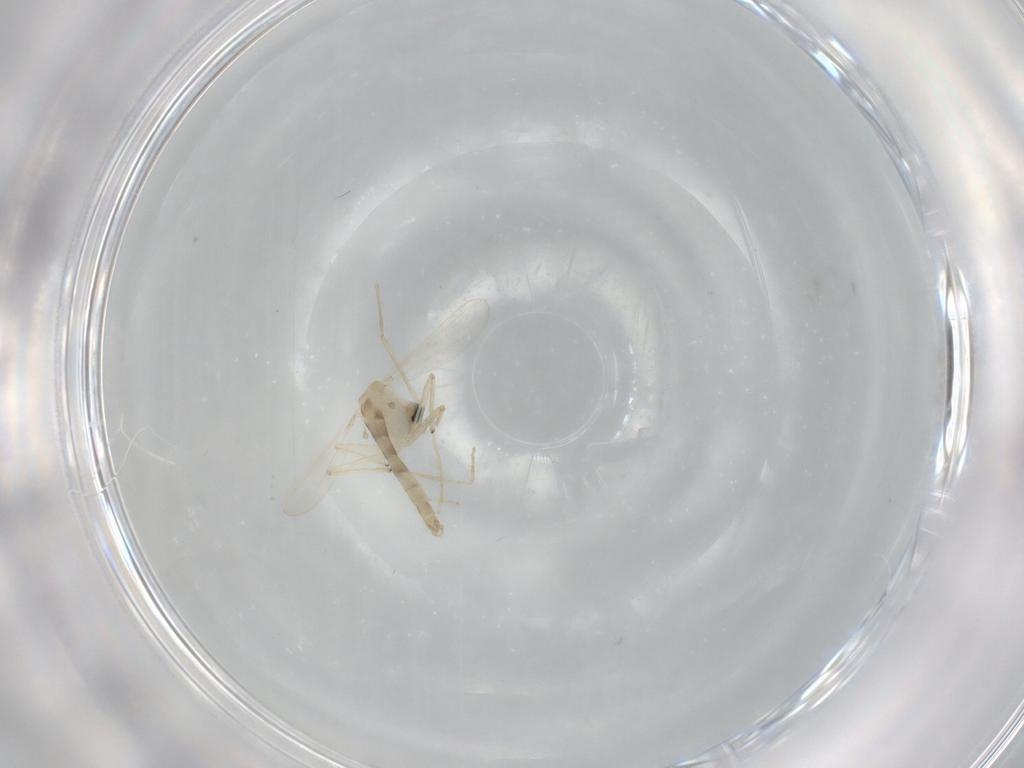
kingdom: Animalia
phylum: Arthropoda
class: Insecta
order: Diptera
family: Chironomidae
